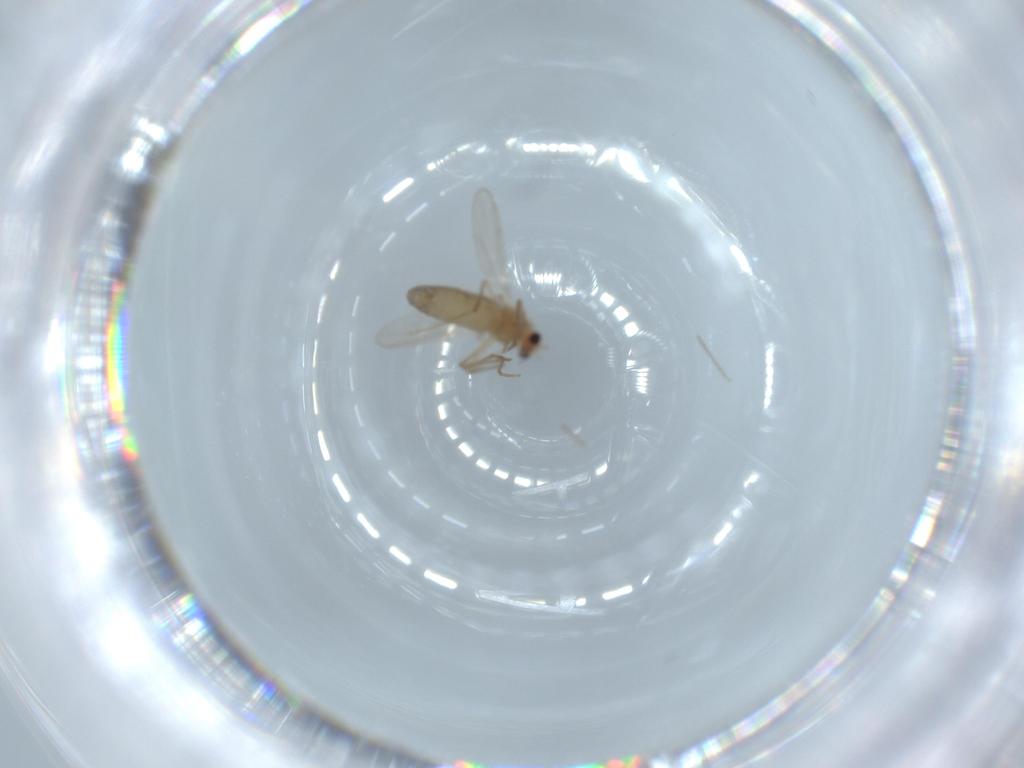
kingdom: Animalia
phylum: Arthropoda
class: Insecta
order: Diptera
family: Chironomidae
